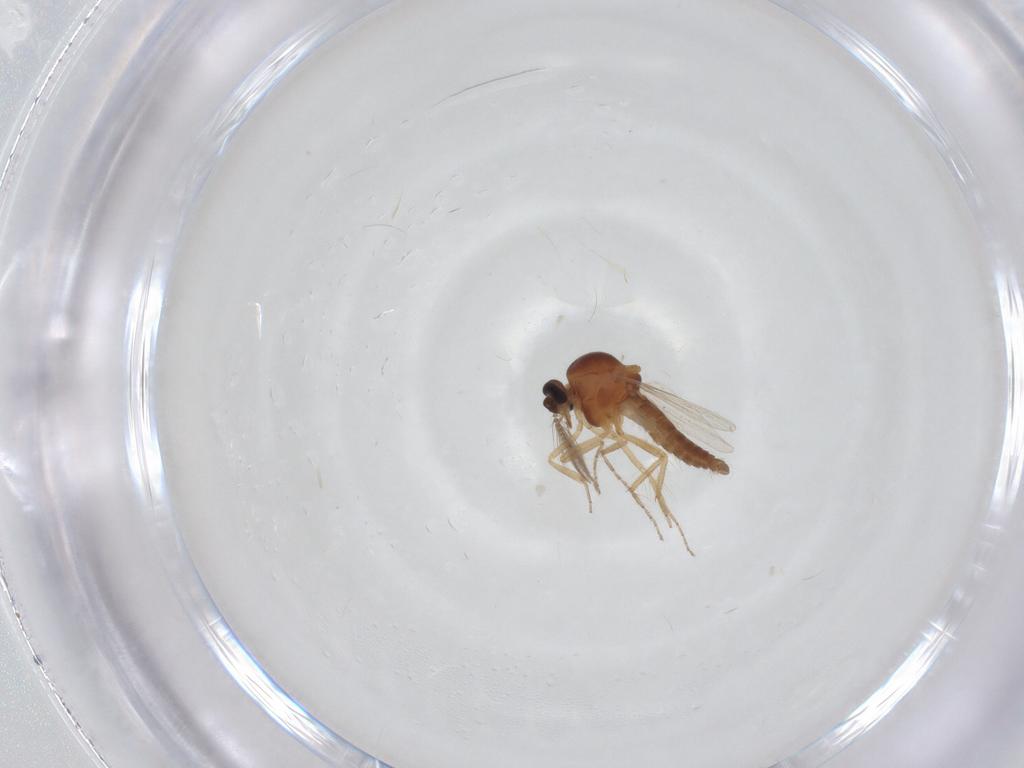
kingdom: Animalia
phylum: Arthropoda
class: Insecta
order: Diptera
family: Ceratopogonidae
